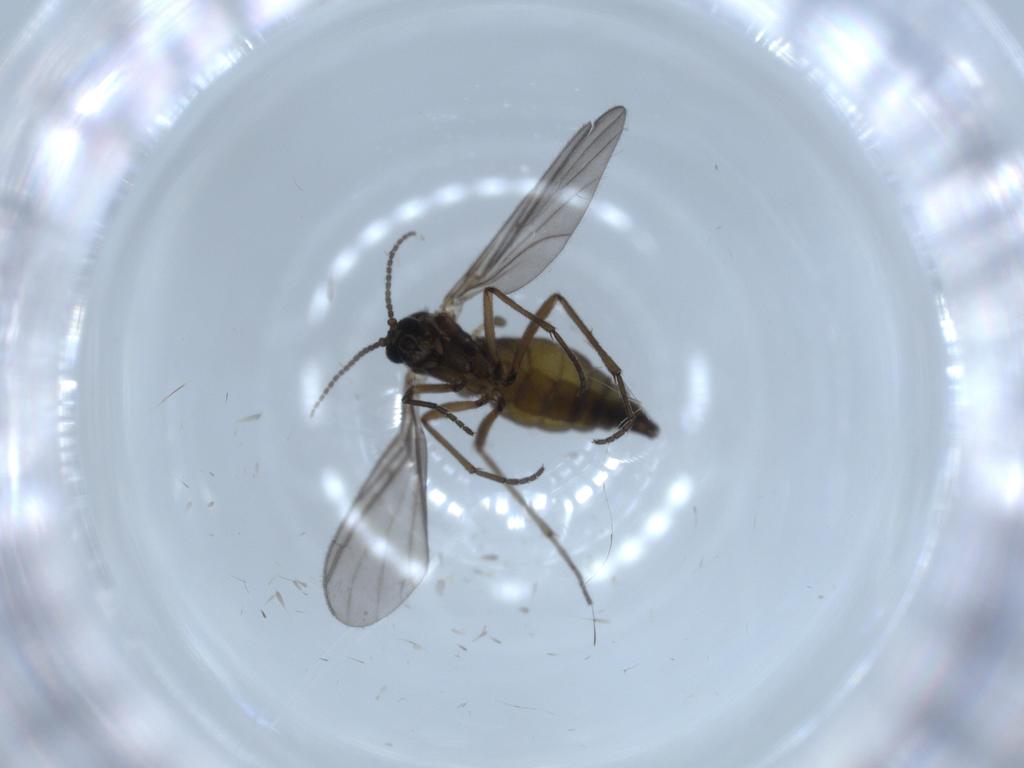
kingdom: Animalia
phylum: Arthropoda
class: Insecta
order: Diptera
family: Sciaridae
